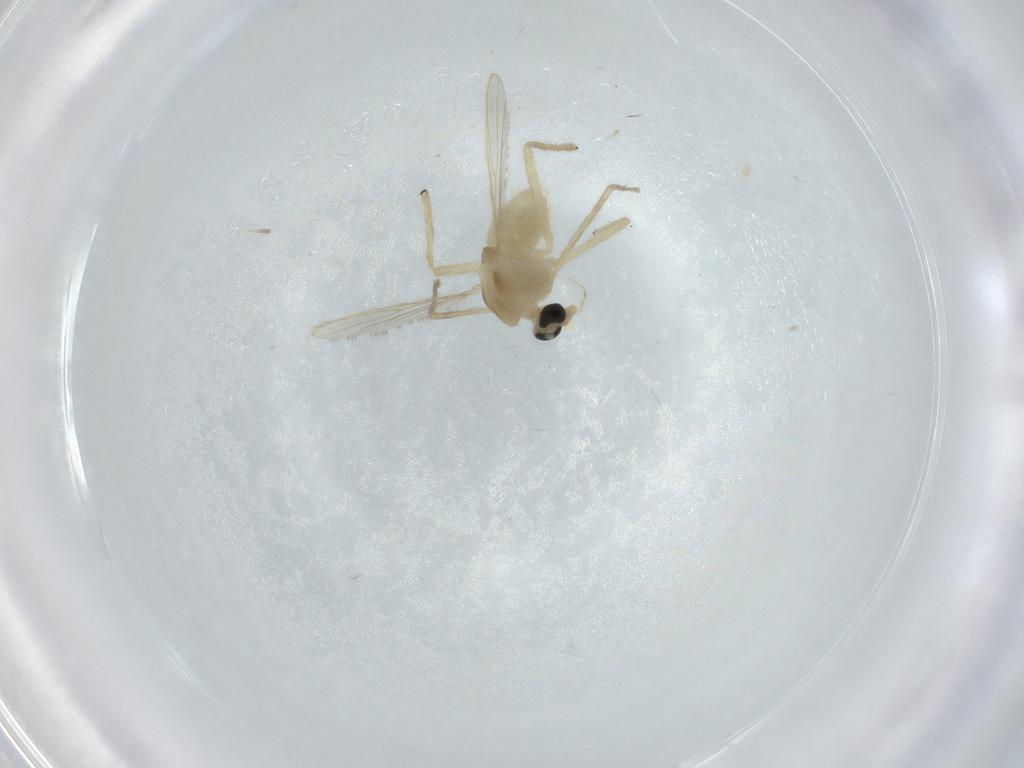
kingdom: Animalia
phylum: Arthropoda
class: Insecta
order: Diptera
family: Chironomidae
